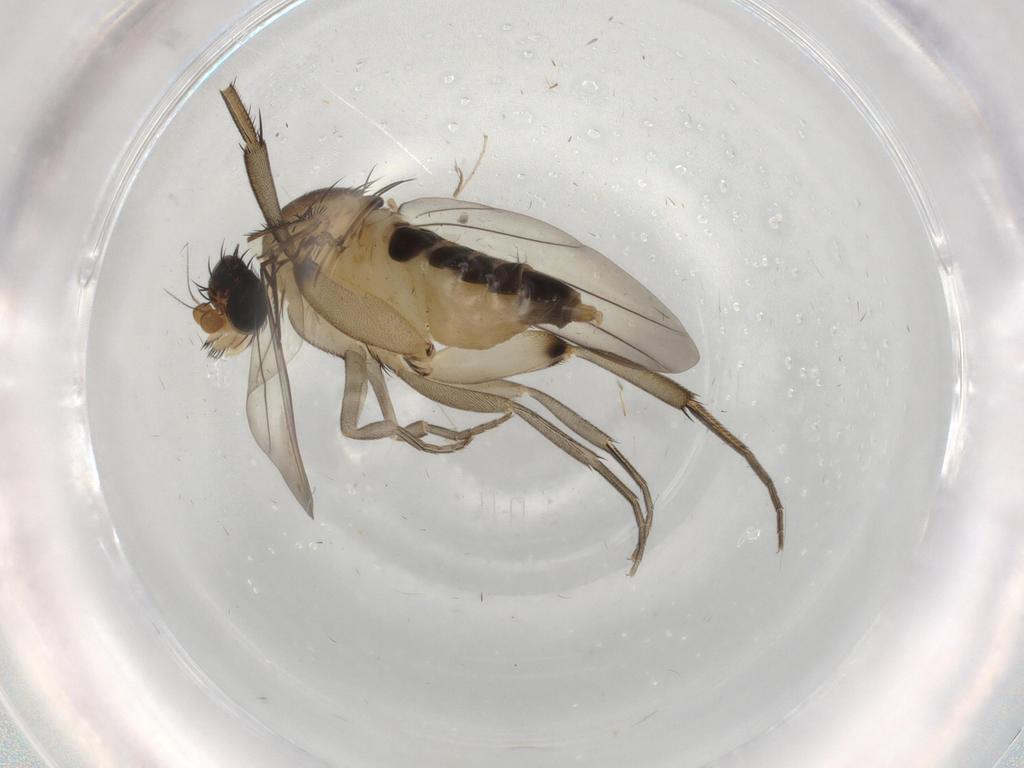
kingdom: Animalia
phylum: Arthropoda
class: Insecta
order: Diptera
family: Phoridae
